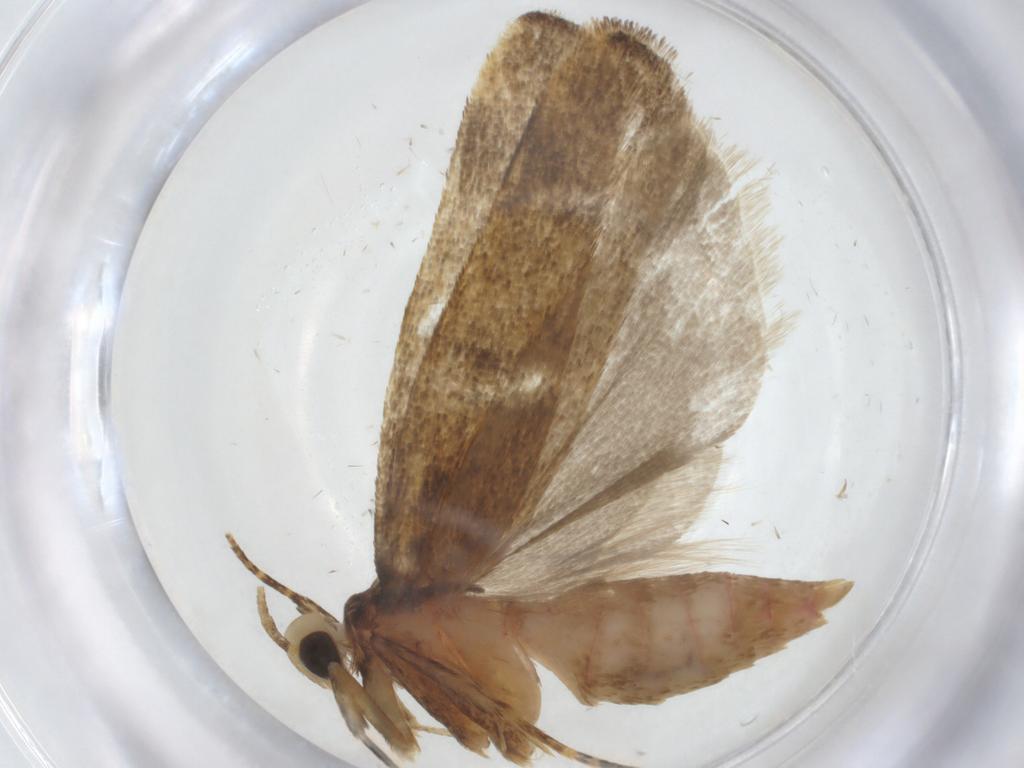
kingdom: Animalia
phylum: Arthropoda
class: Insecta
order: Lepidoptera
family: Autostichidae
